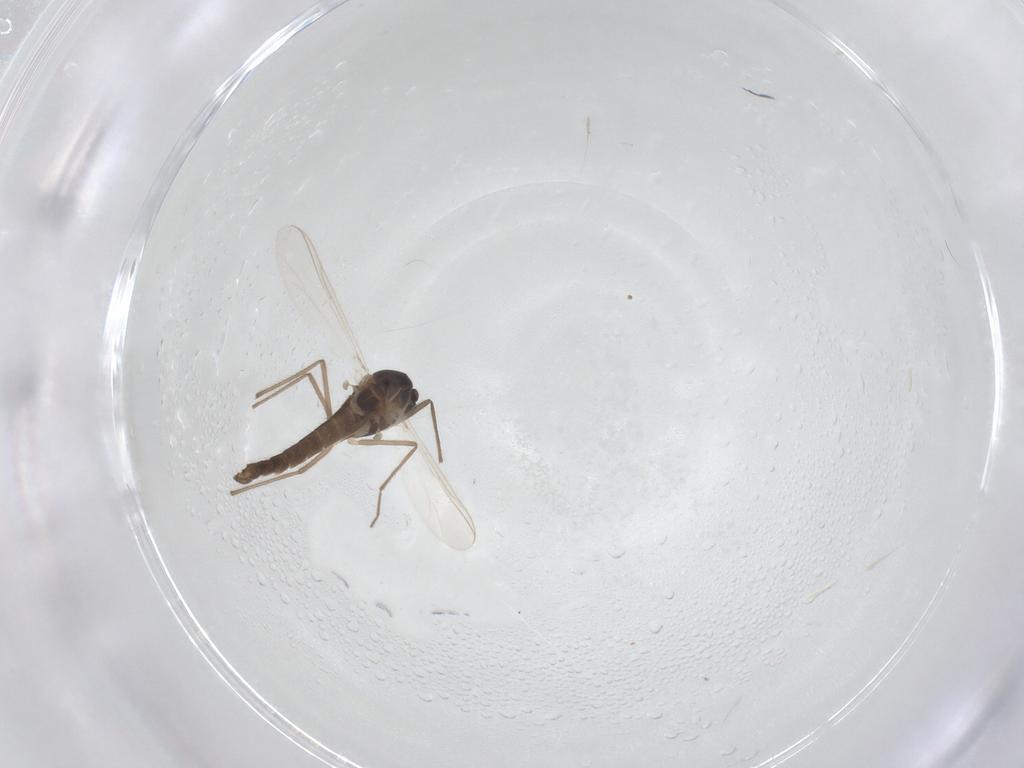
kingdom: Animalia
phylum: Arthropoda
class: Insecta
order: Diptera
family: Chironomidae
